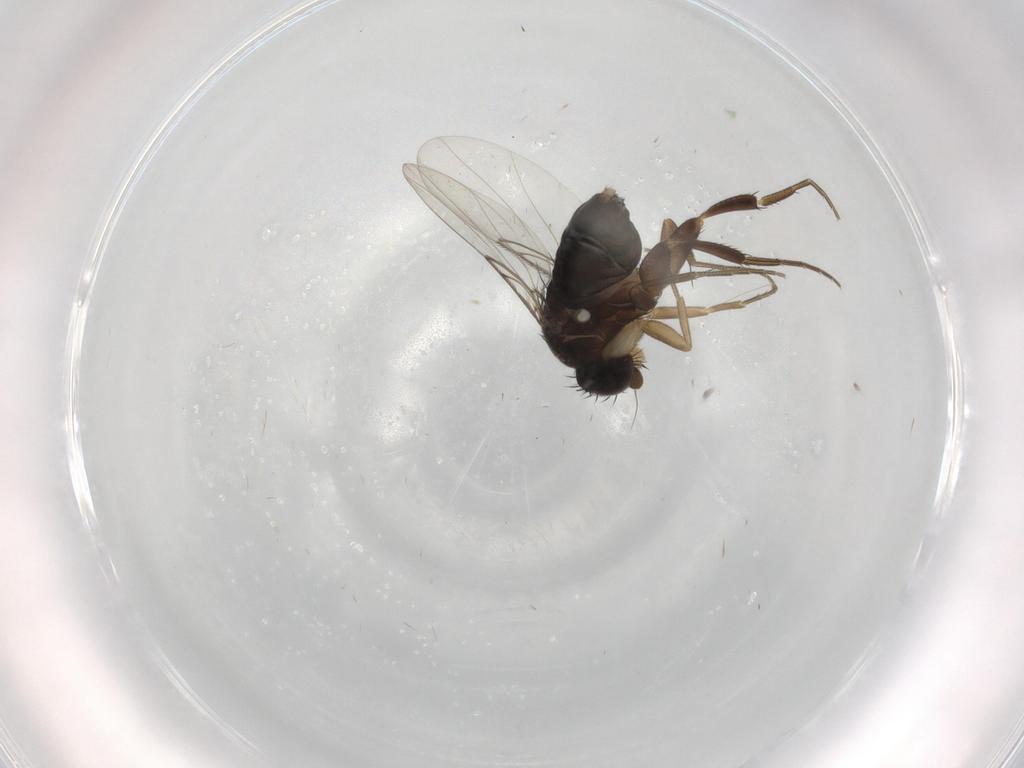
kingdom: Animalia
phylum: Arthropoda
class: Insecta
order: Diptera
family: Phoridae
